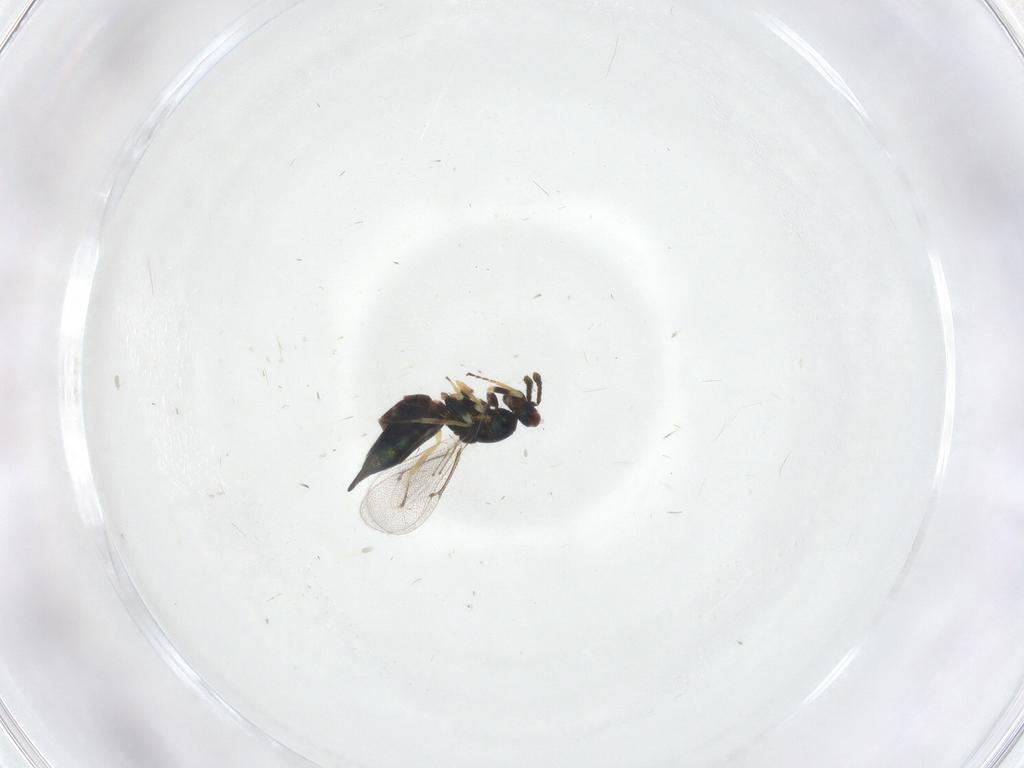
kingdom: Animalia
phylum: Arthropoda
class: Insecta
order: Hymenoptera
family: Eulophidae
